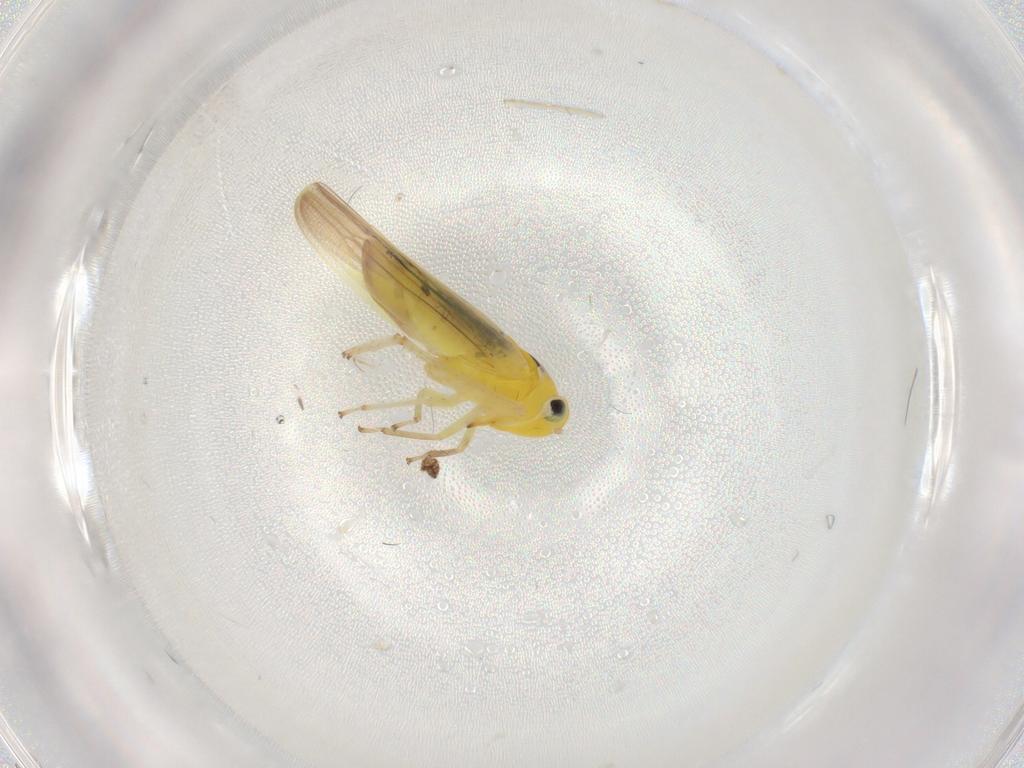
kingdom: Animalia
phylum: Arthropoda
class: Insecta
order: Hemiptera
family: Cicadellidae
